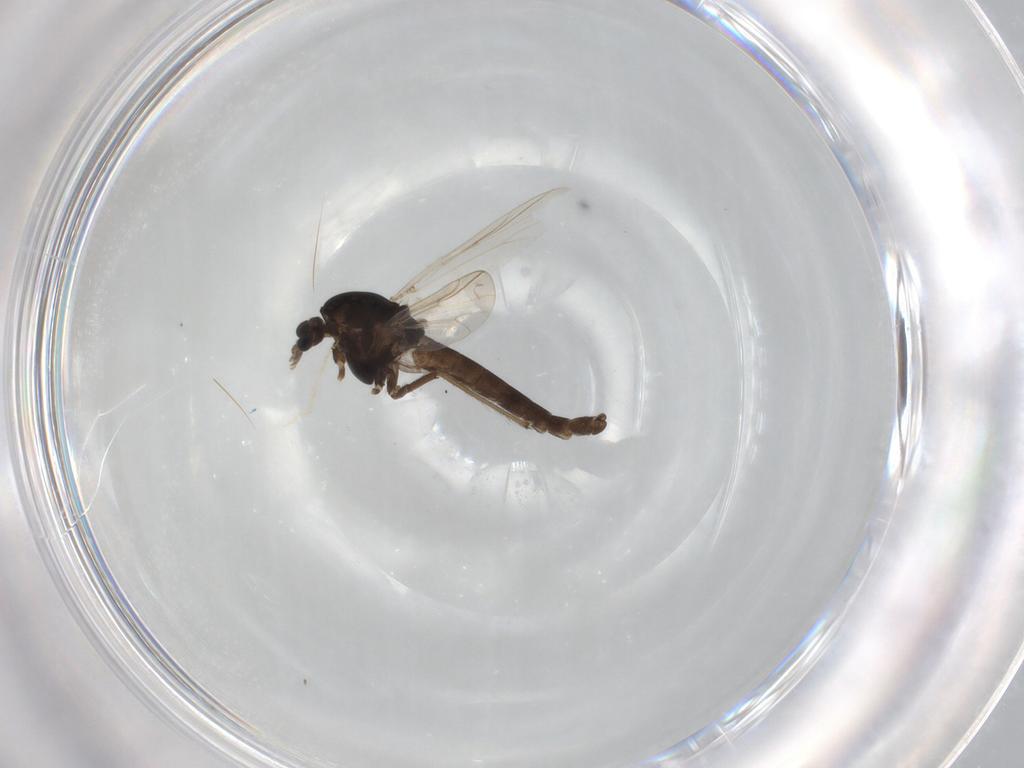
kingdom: Animalia
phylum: Arthropoda
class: Insecta
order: Diptera
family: Chironomidae
